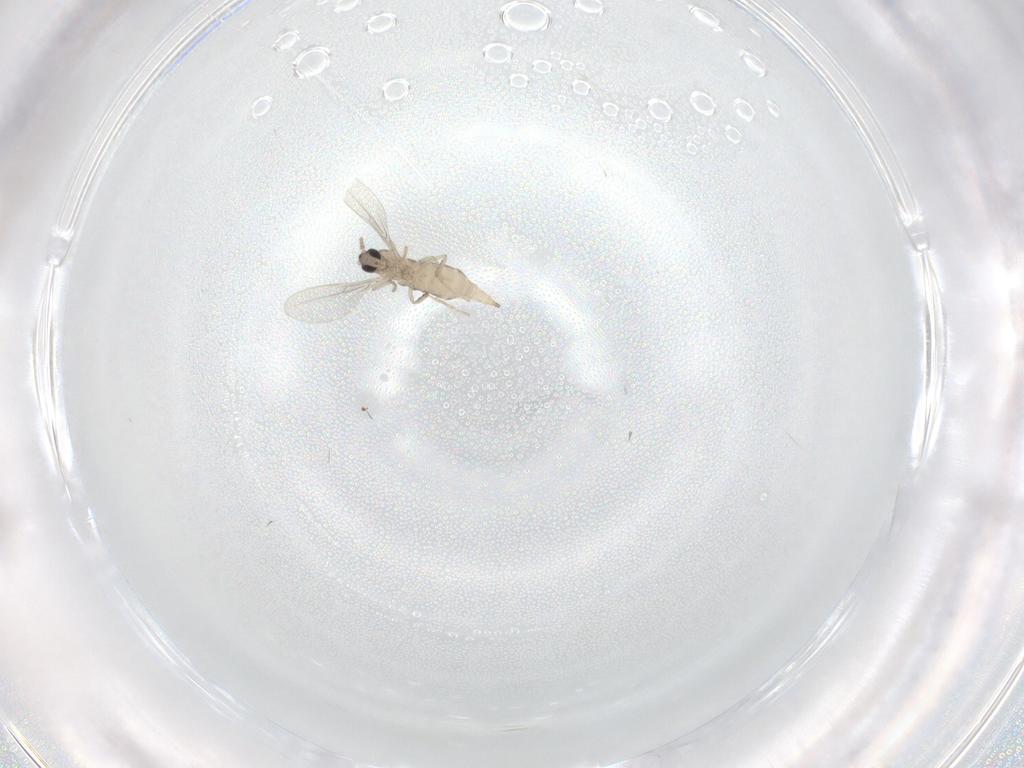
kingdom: Animalia
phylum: Arthropoda
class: Insecta
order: Diptera
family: Cecidomyiidae
